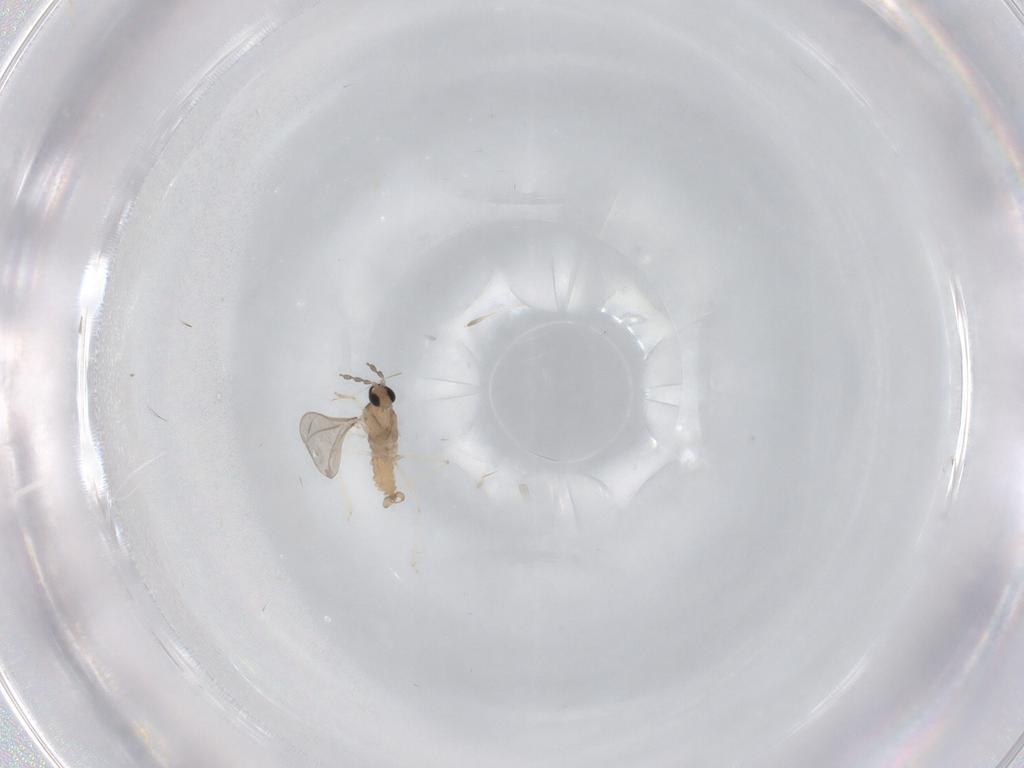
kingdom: Animalia
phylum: Arthropoda
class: Insecta
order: Diptera
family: Cecidomyiidae
